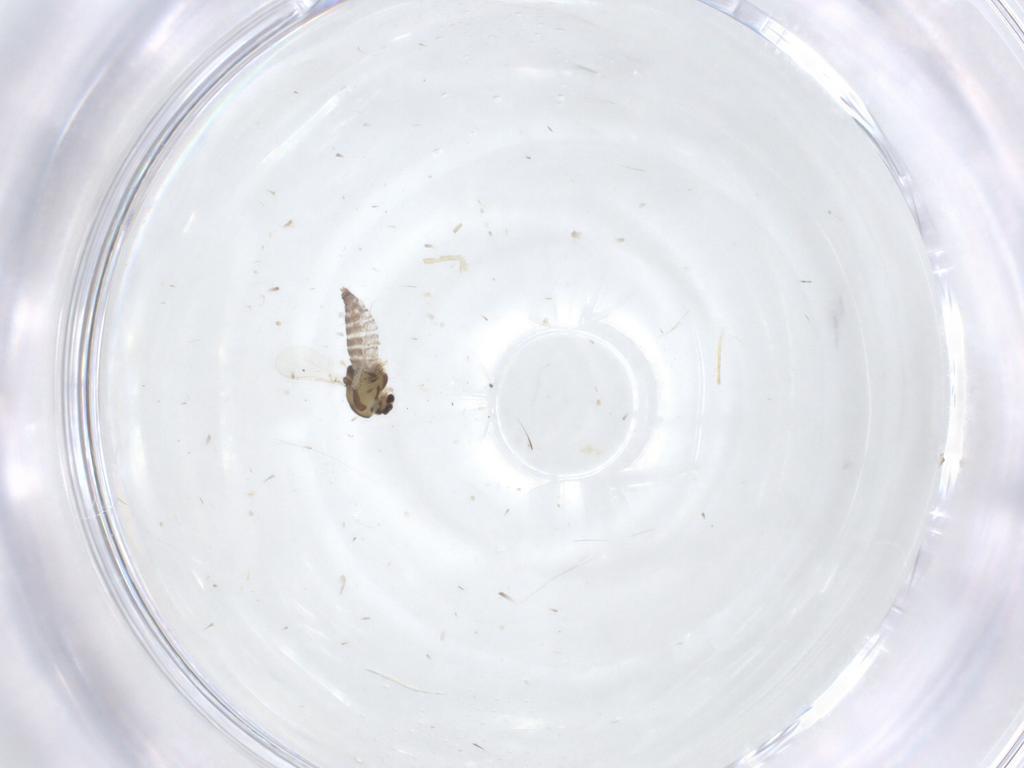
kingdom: Animalia
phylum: Arthropoda
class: Insecta
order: Diptera
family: Chironomidae
